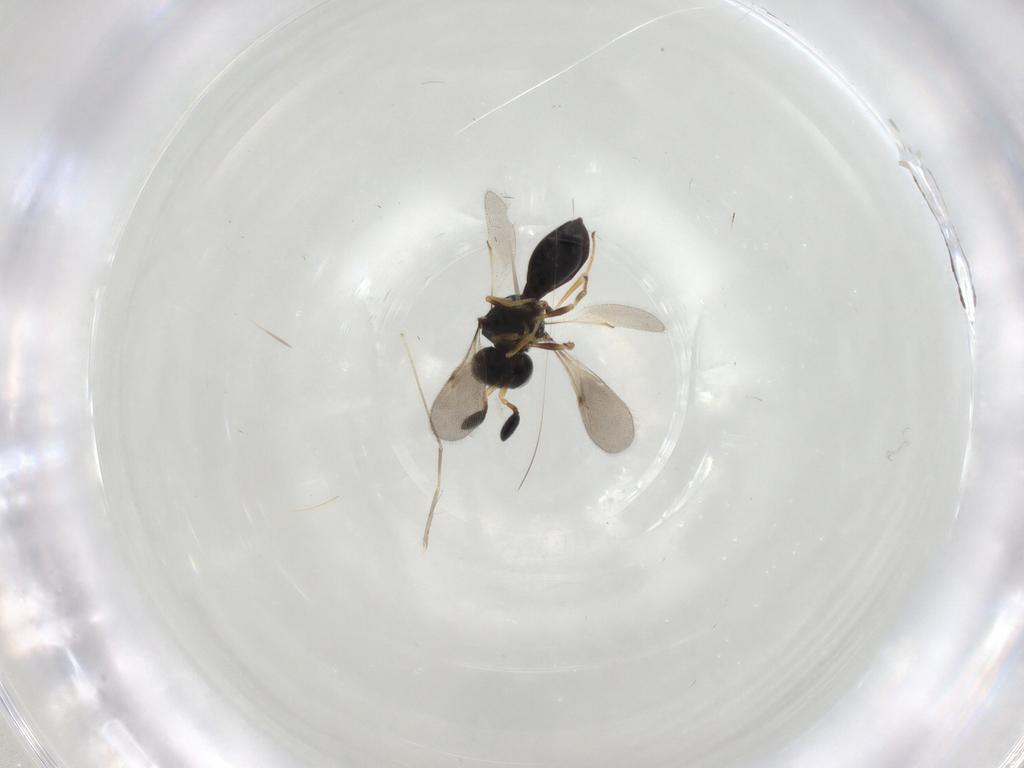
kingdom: Animalia
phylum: Arthropoda
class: Insecta
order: Hymenoptera
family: Scelionidae
